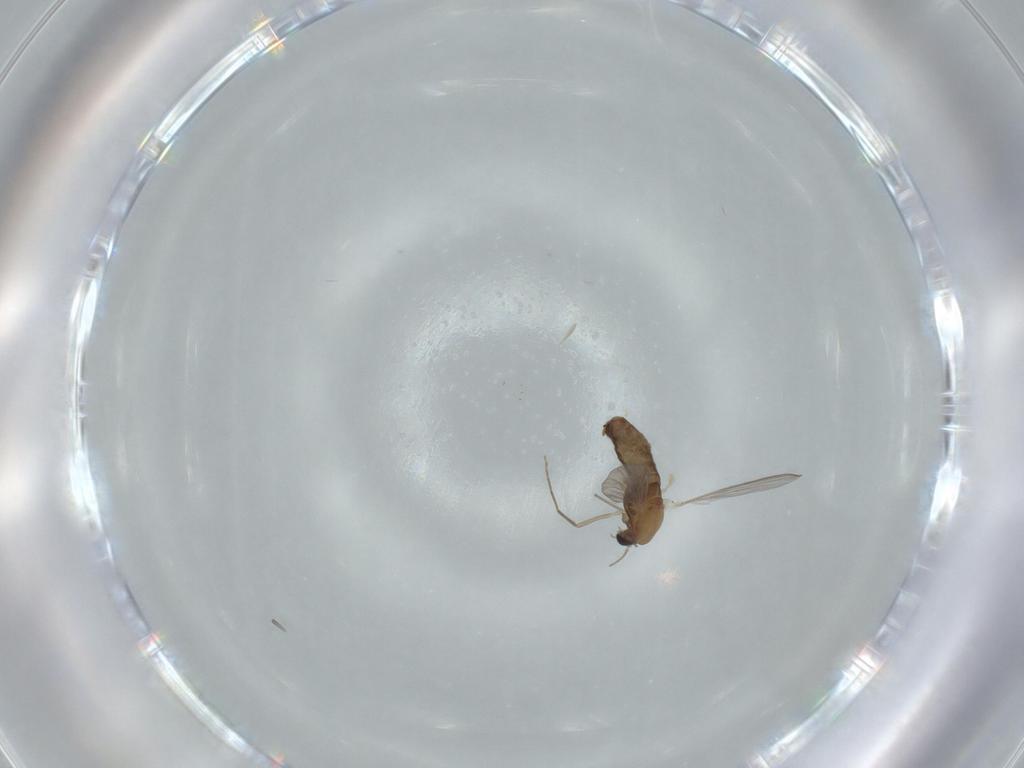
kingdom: Animalia
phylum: Arthropoda
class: Insecta
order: Diptera
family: Chironomidae
